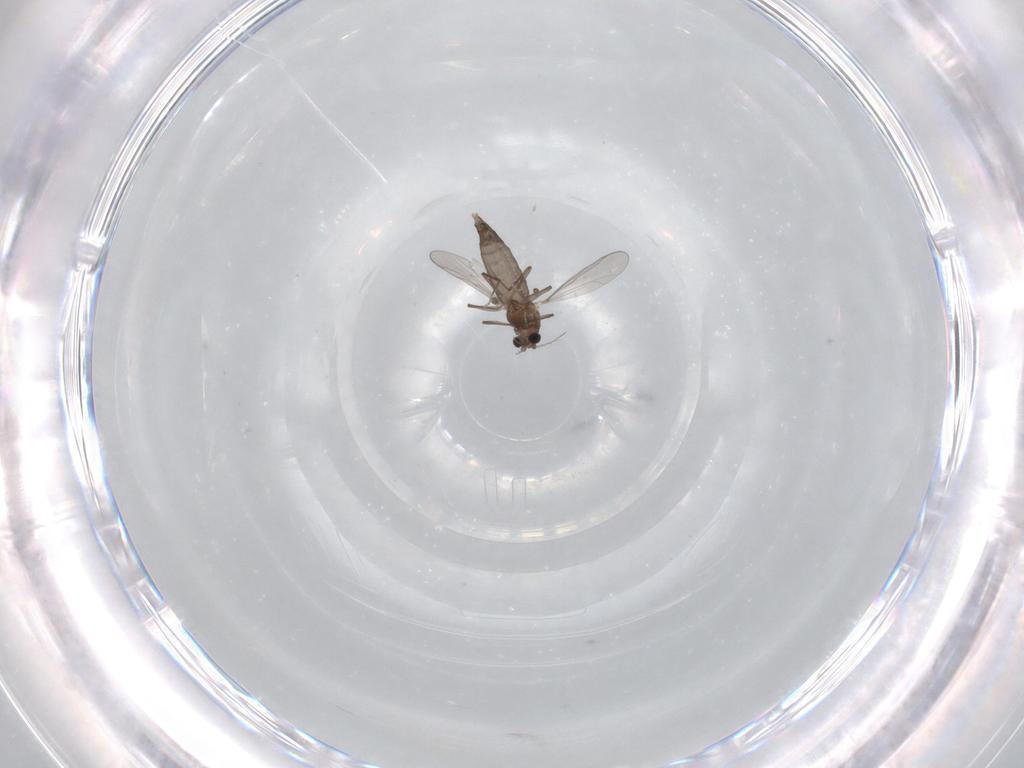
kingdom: Animalia
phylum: Arthropoda
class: Insecta
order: Diptera
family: Chironomidae
